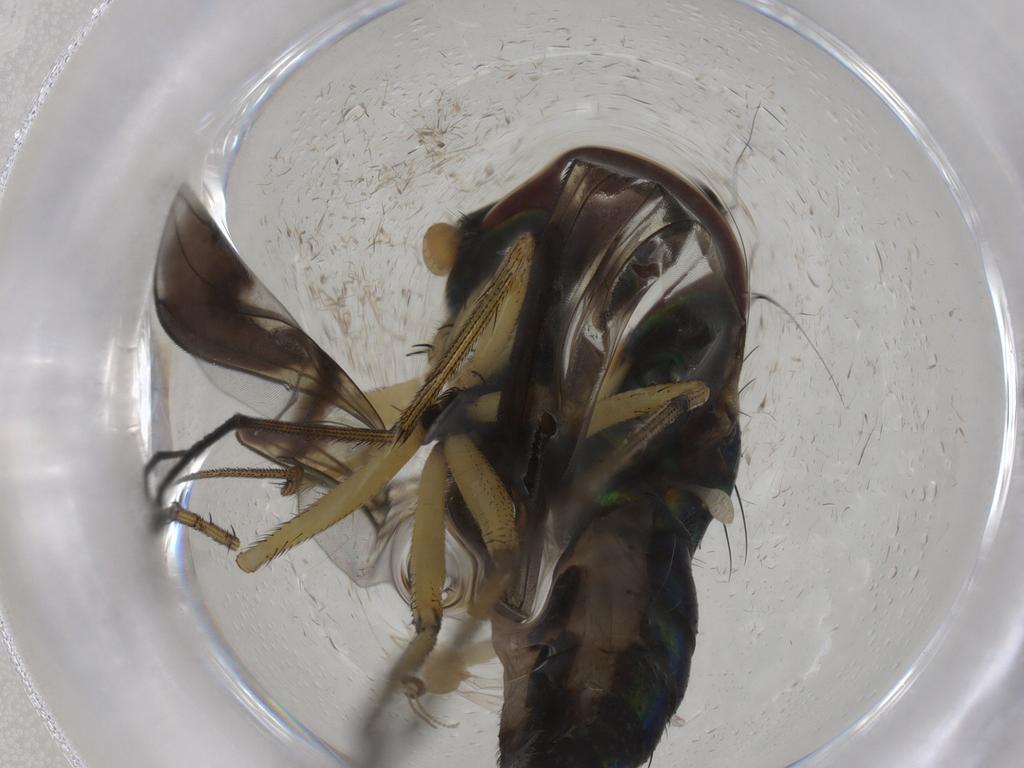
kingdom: Animalia
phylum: Arthropoda
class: Insecta
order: Diptera
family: Dolichopodidae
